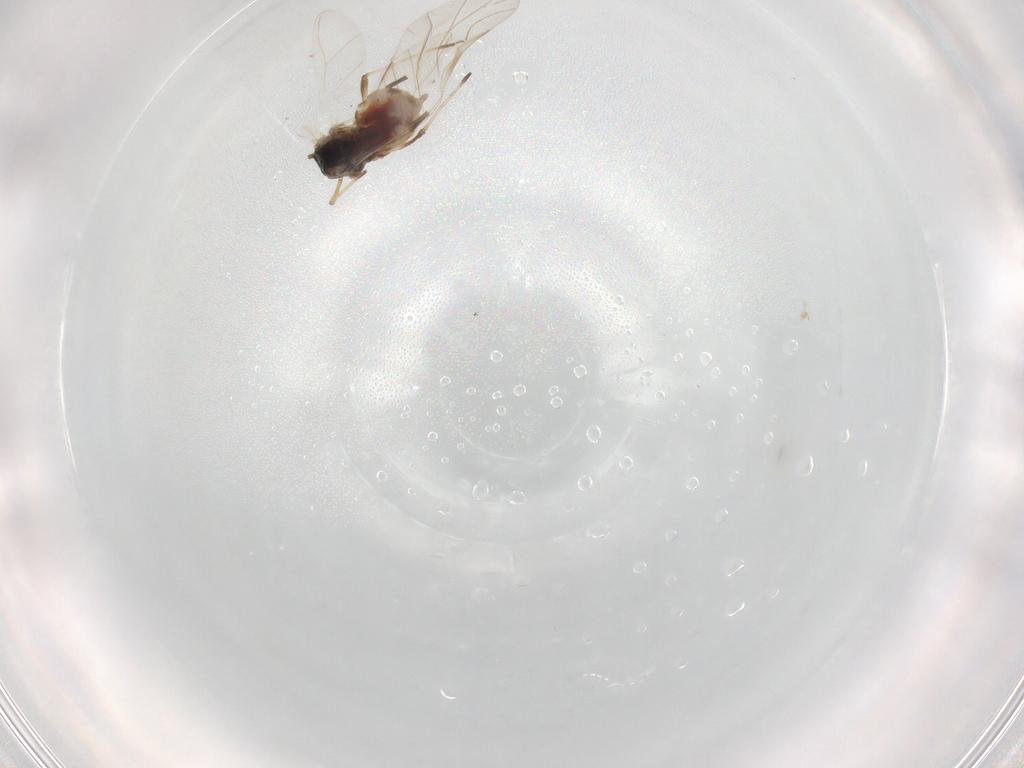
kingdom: Animalia
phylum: Arthropoda
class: Insecta
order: Hemiptera
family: Aphididae
